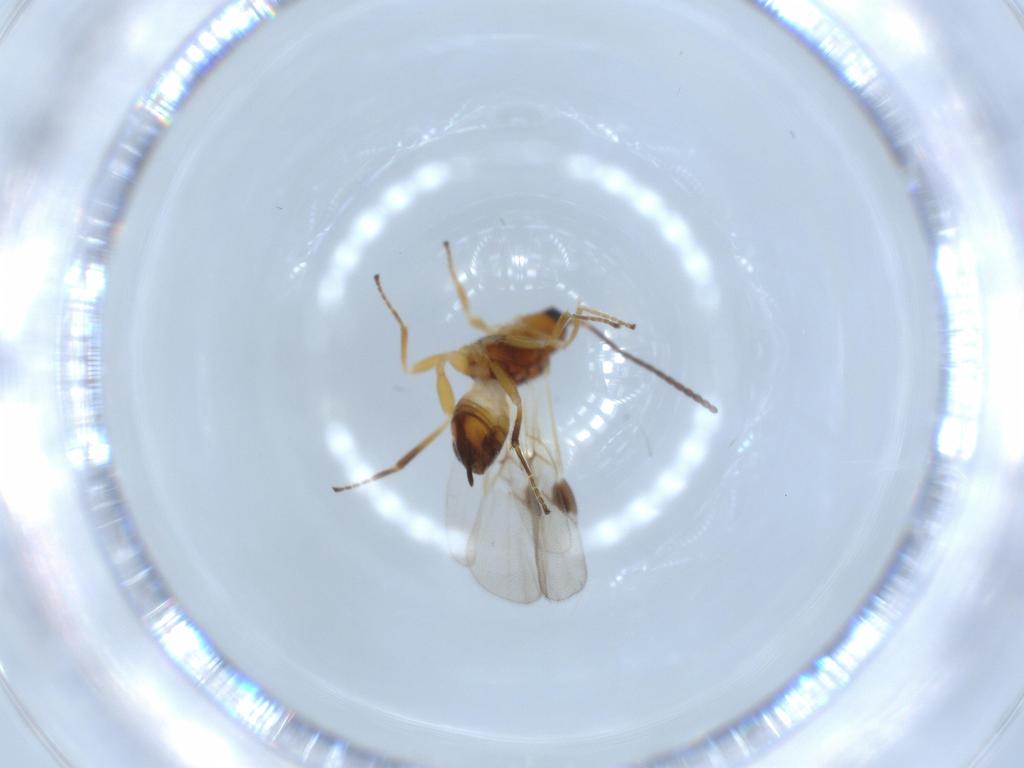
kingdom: Animalia
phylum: Arthropoda
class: Insecta
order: Hymenoptera
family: Braconidae
